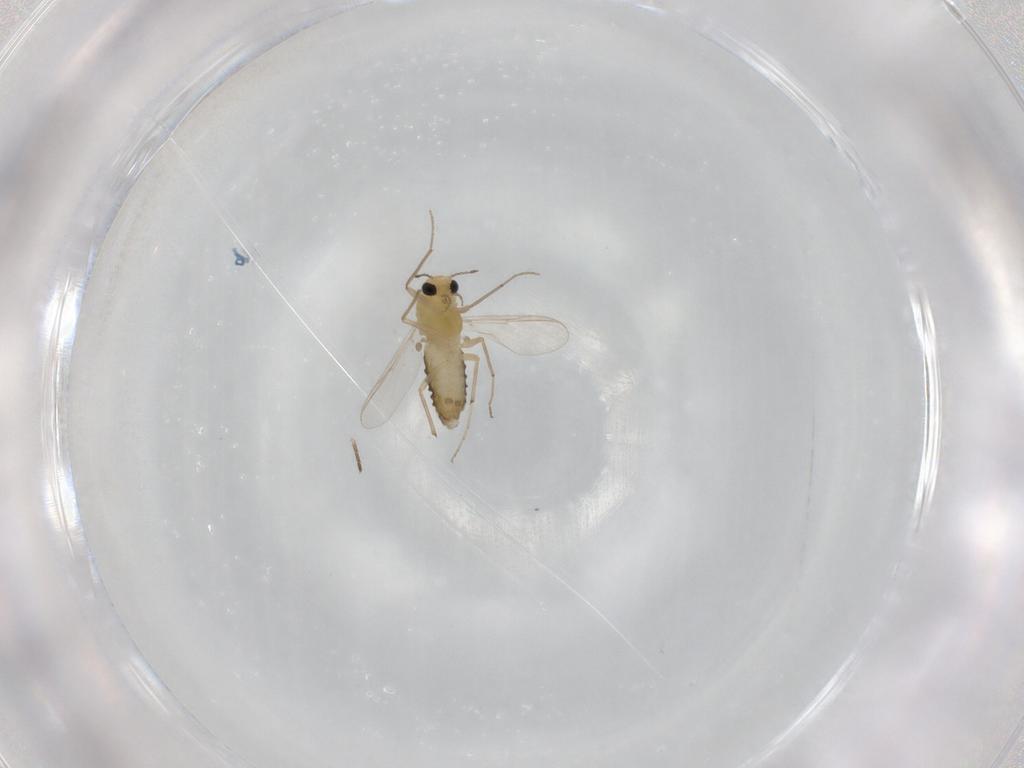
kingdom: Animalia
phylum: Arthropoda
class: Insecta
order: Diptera
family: Chironomidae
